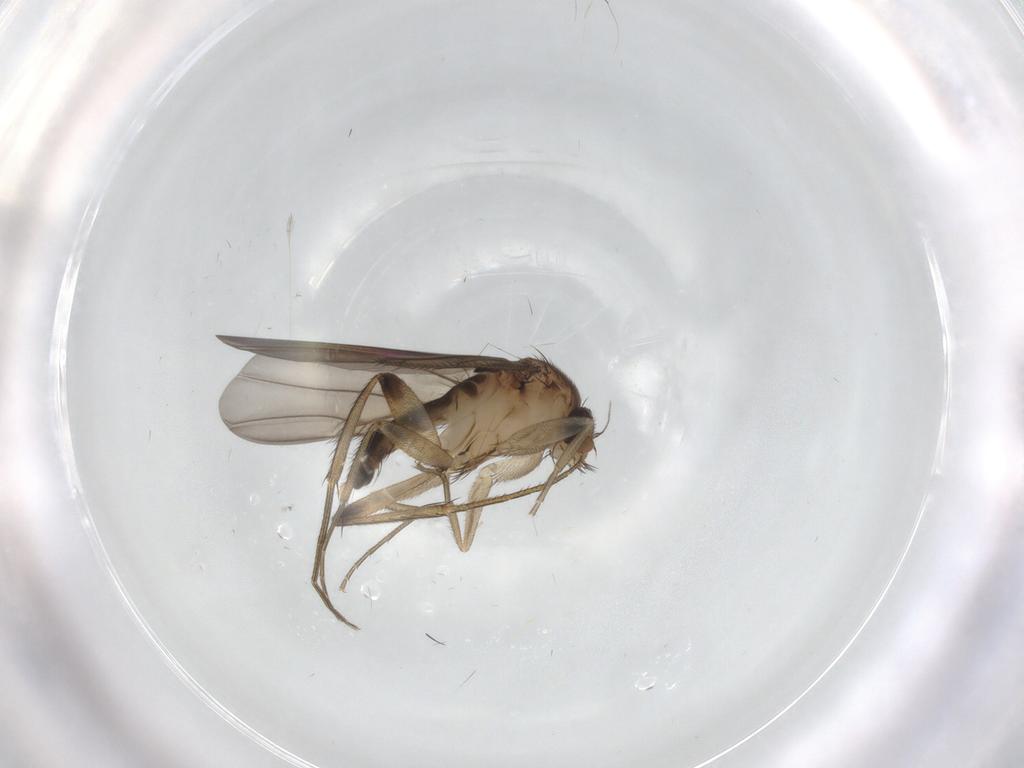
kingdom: Animalia
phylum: Arthropoda
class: Insecta
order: Diptera
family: Phoridae
